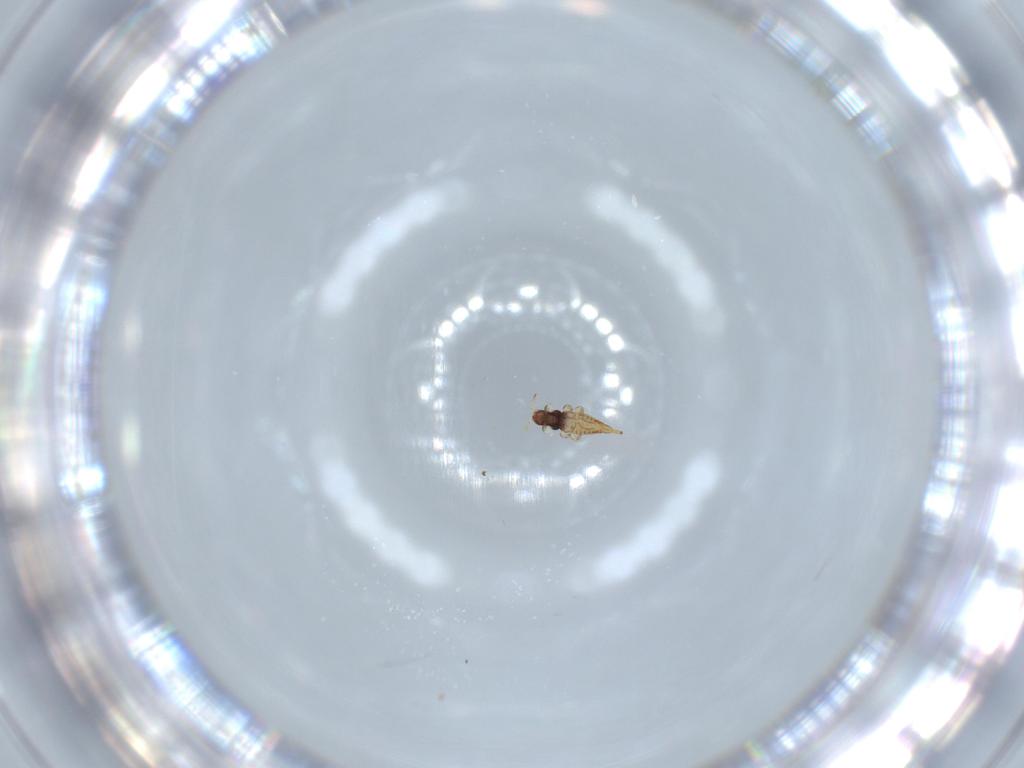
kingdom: Animalia
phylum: Arthropoda
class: Insecta
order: Thysanoptera
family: Phlaeothripidae
